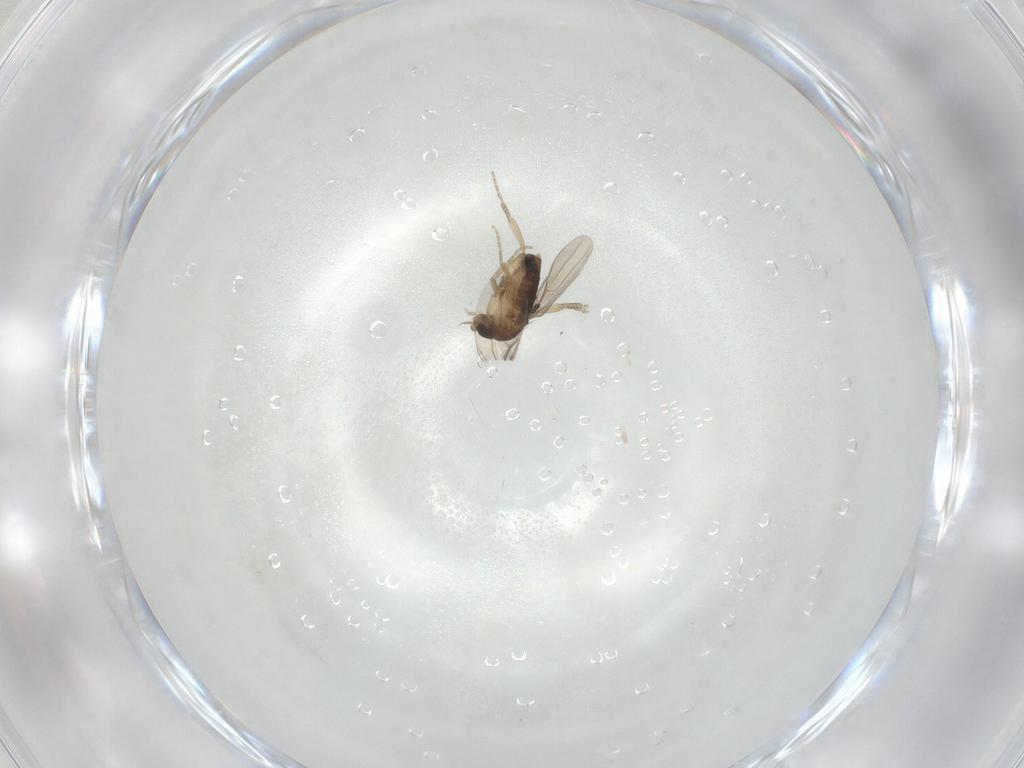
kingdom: Animalia
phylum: Arthropoda
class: Insecta
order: Diptera
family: Phoridae
